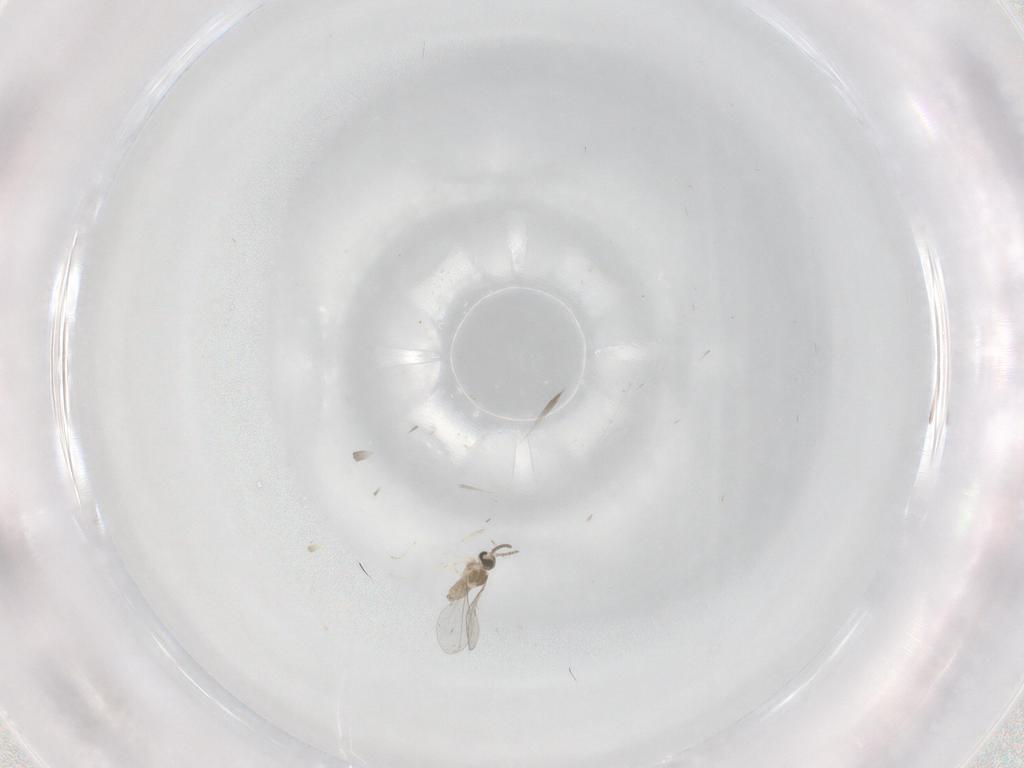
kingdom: Animalia
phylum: Arthropoda
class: Insecta
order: Diptera
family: Cecidomyiidae
